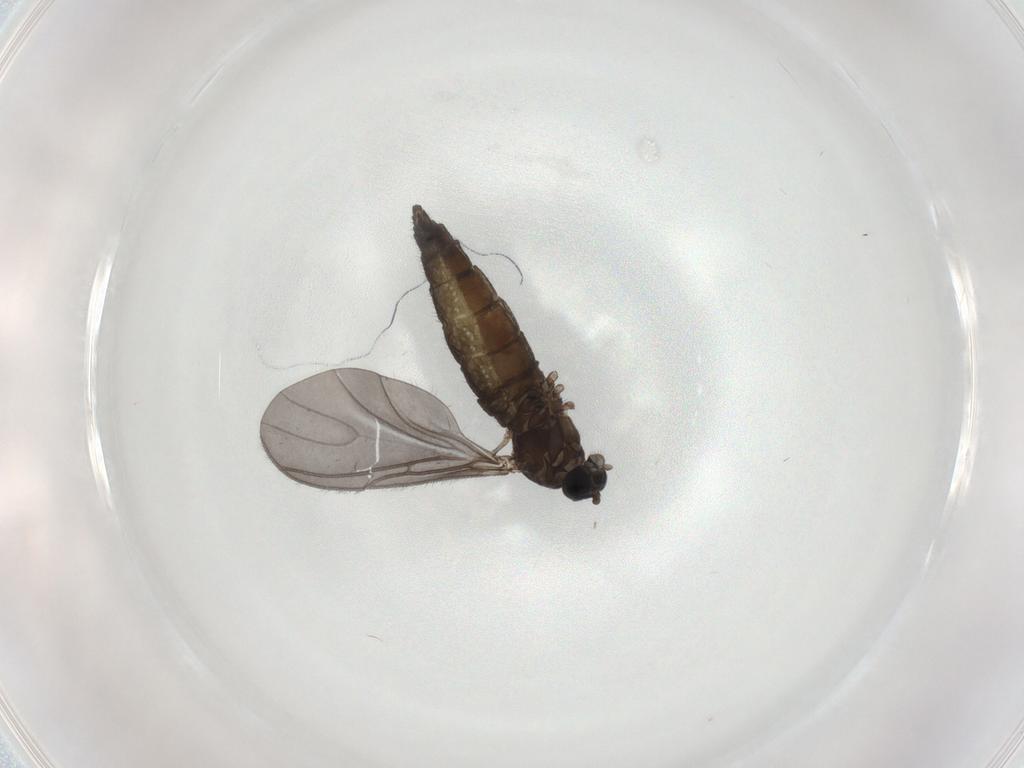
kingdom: Animalia
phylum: Arthropoda
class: Insecta
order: Diptera
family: Sciaridae
